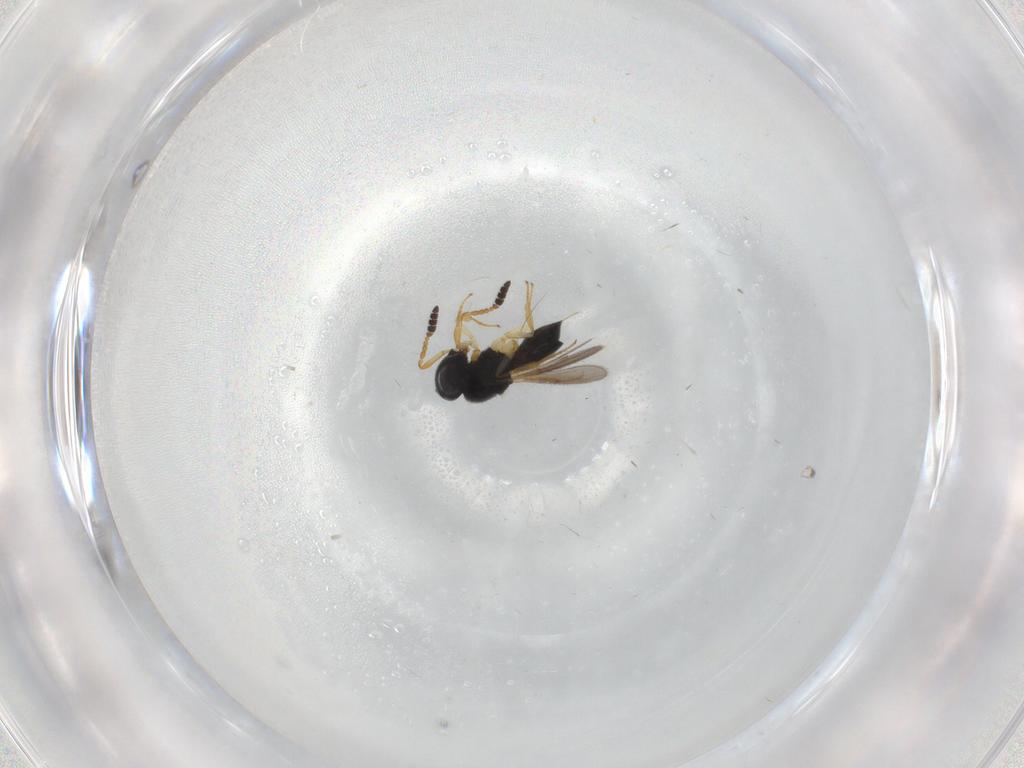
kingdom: Animalia
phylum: Arthropoda
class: Insecta
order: Hymenoptera
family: Scelionidae
